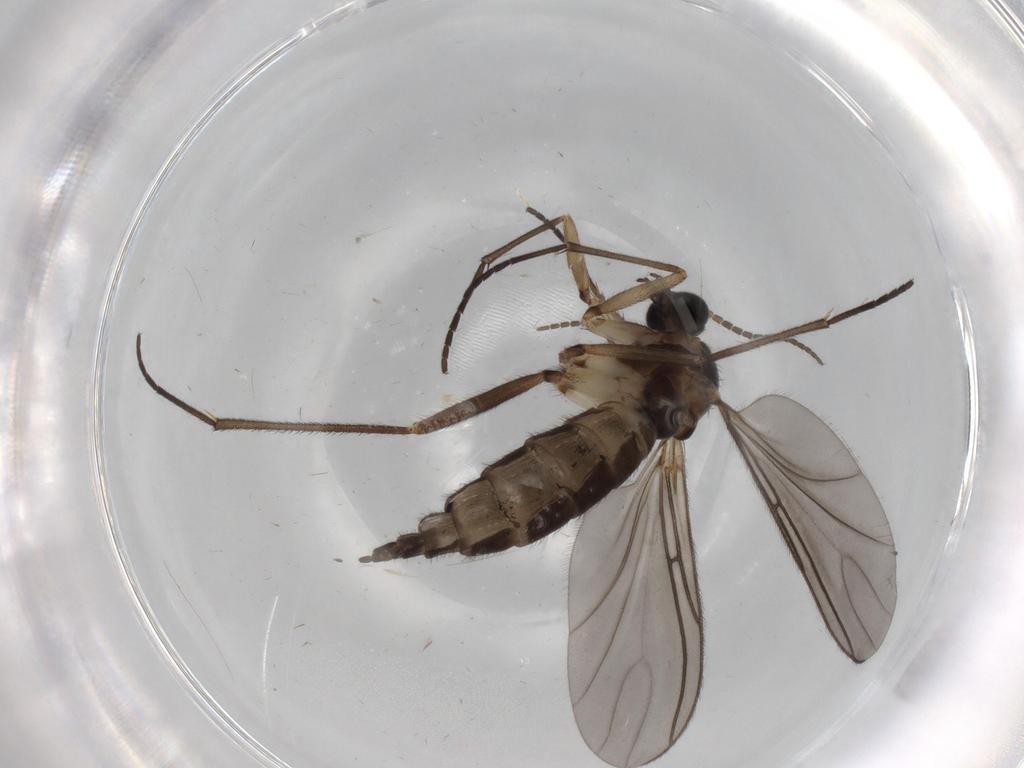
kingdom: Animalia
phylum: Arthropoda
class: Insecta
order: Diptera
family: Sciaridae
